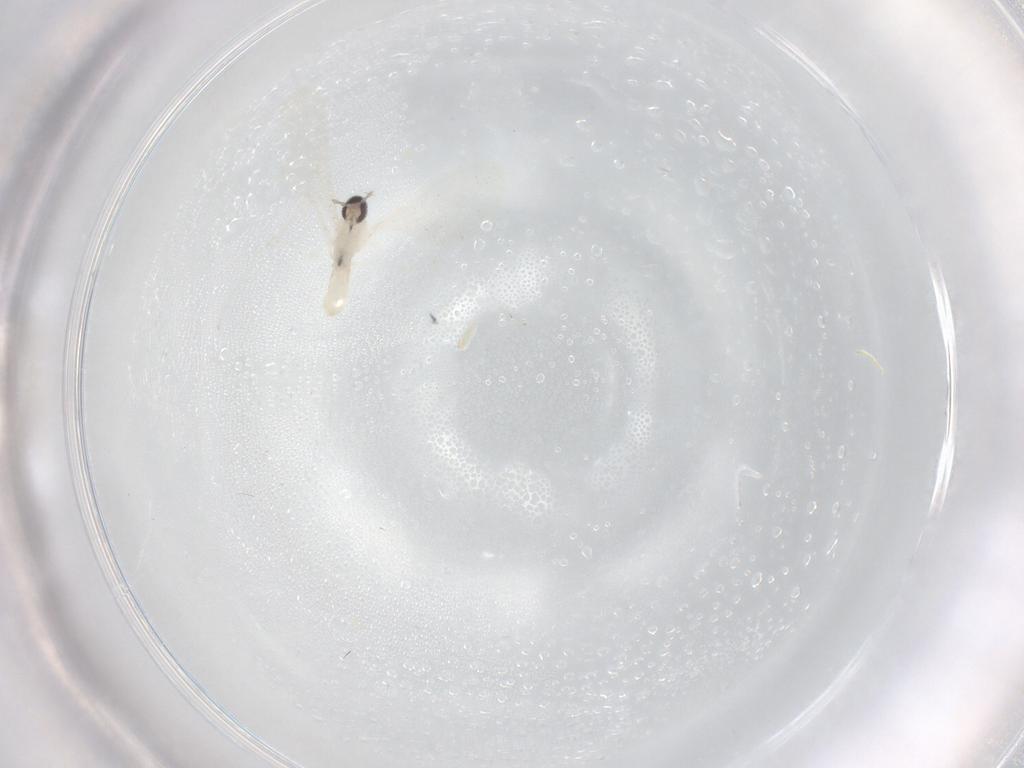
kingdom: Animalia
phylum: Arthropoda
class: Insecta
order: Diptera
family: Cecidomyiidae
